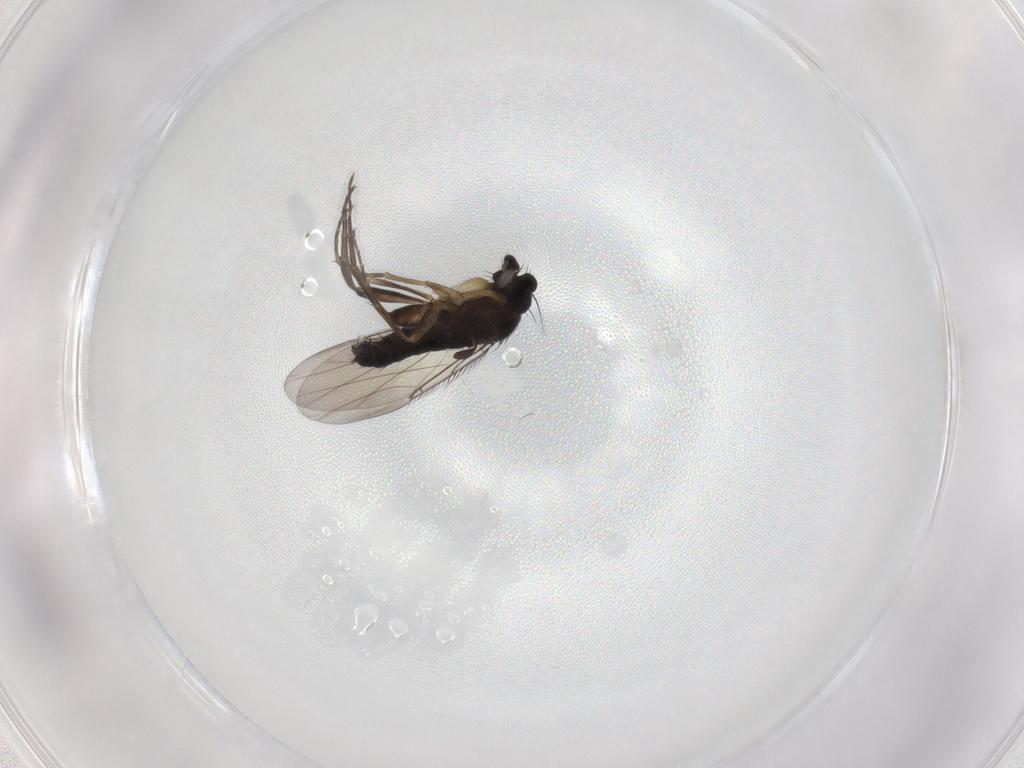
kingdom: Animalia
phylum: Arthropoda
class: Insecta
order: Diptera
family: Phoridae
